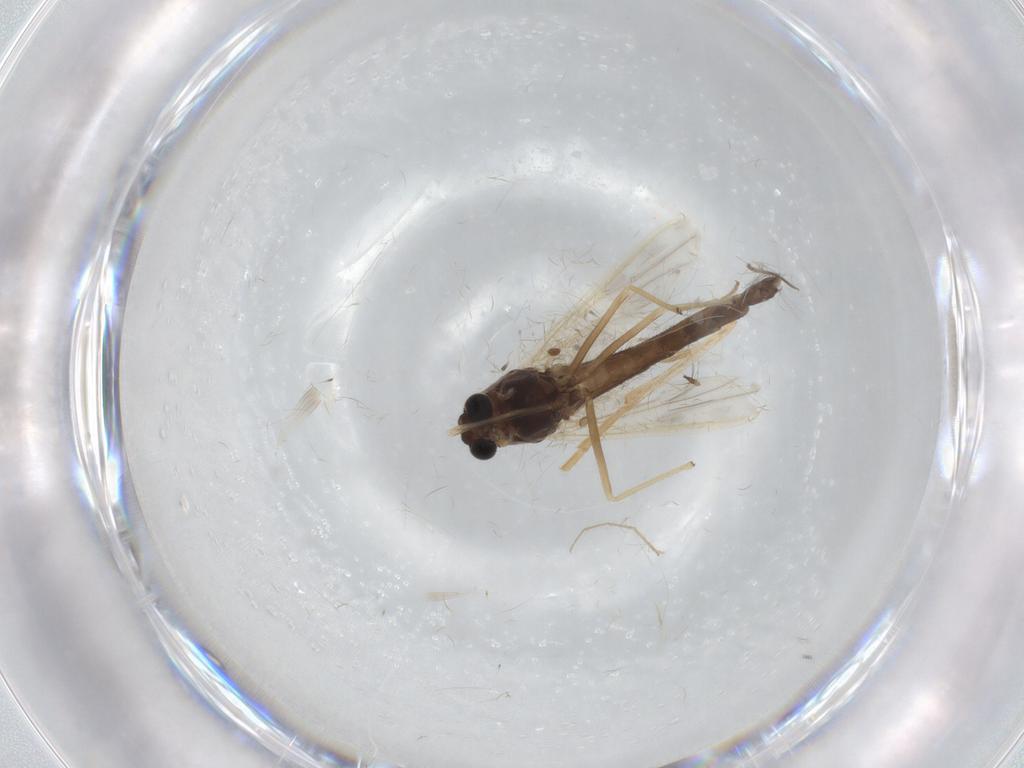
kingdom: Animalia
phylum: Arthropoda
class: Insecta
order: Diptera
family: Chironomidae
